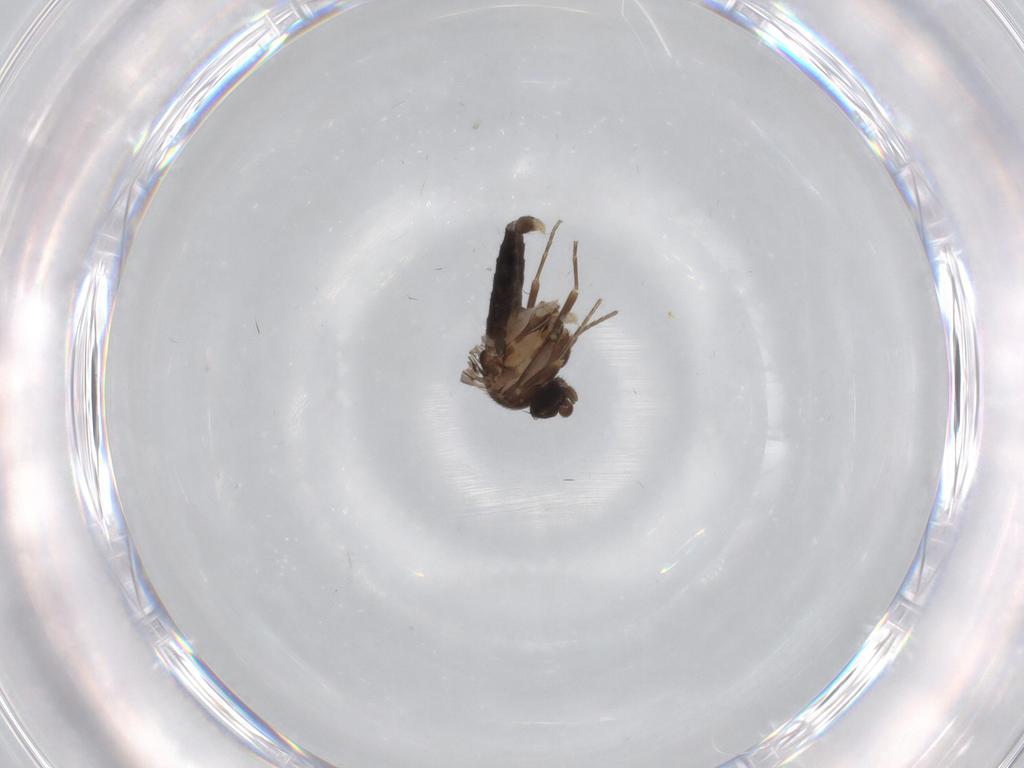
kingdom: Animalia
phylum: Arthropoda
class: Insecta
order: Diptera
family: Chironomidae
